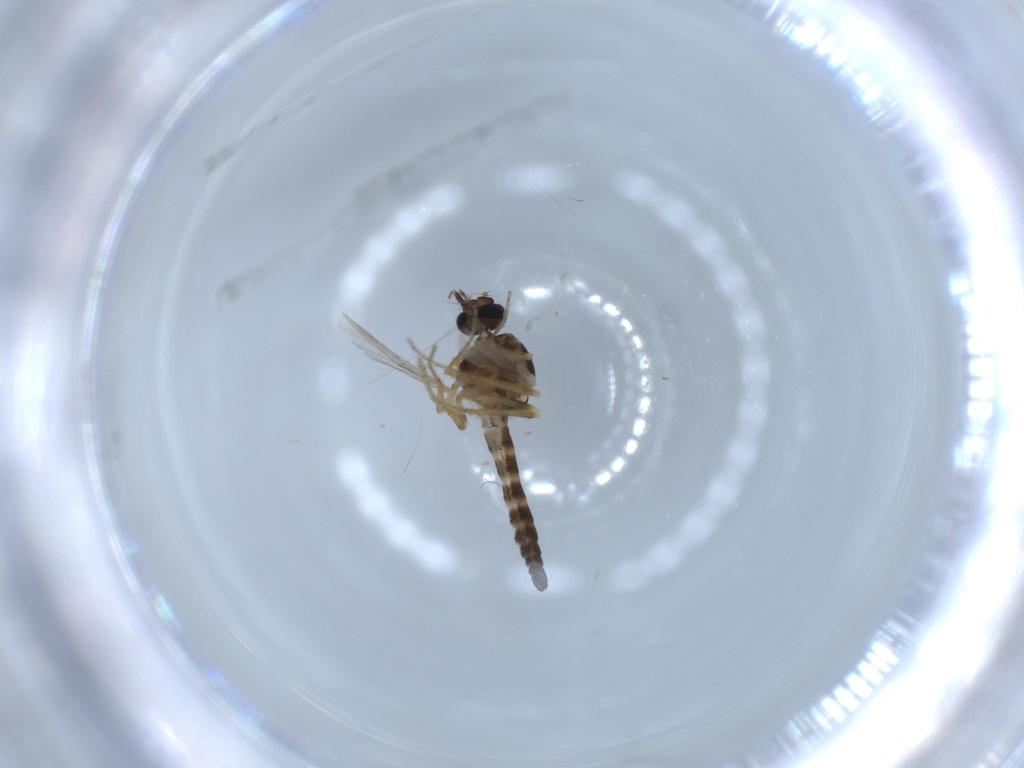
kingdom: Animalia
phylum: Arthropoda
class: Insecta
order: Diptera
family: Ceratopogonidae
